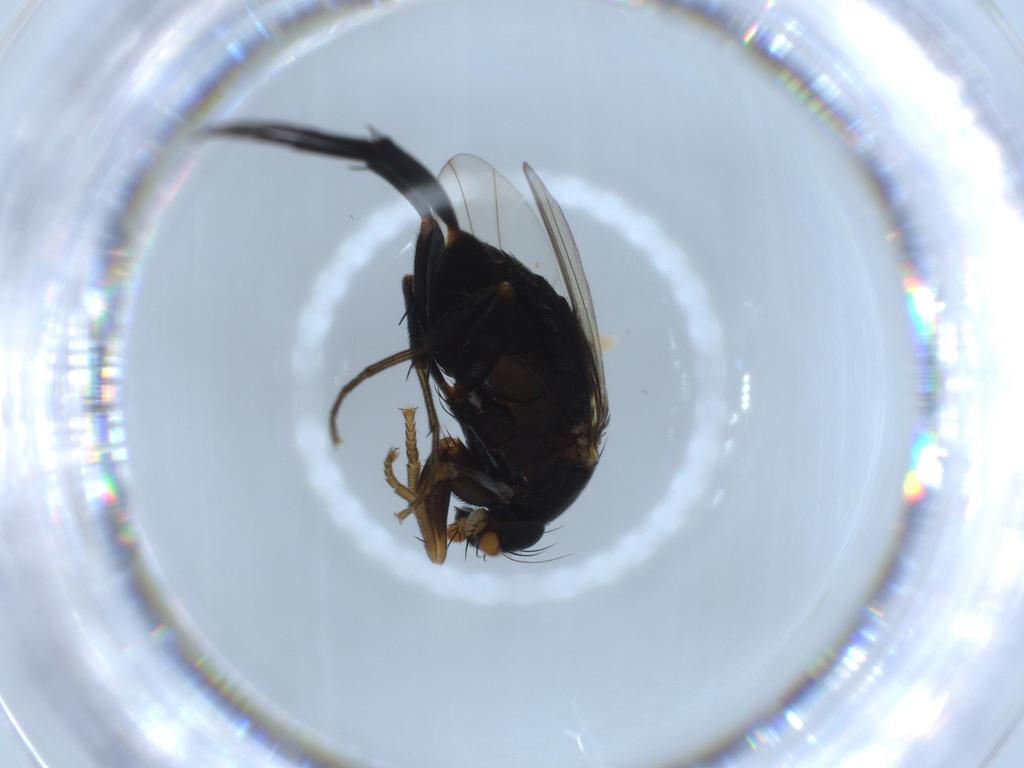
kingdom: Animalia
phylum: Arthropoda
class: Insecta
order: Diptera
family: Phoridae
